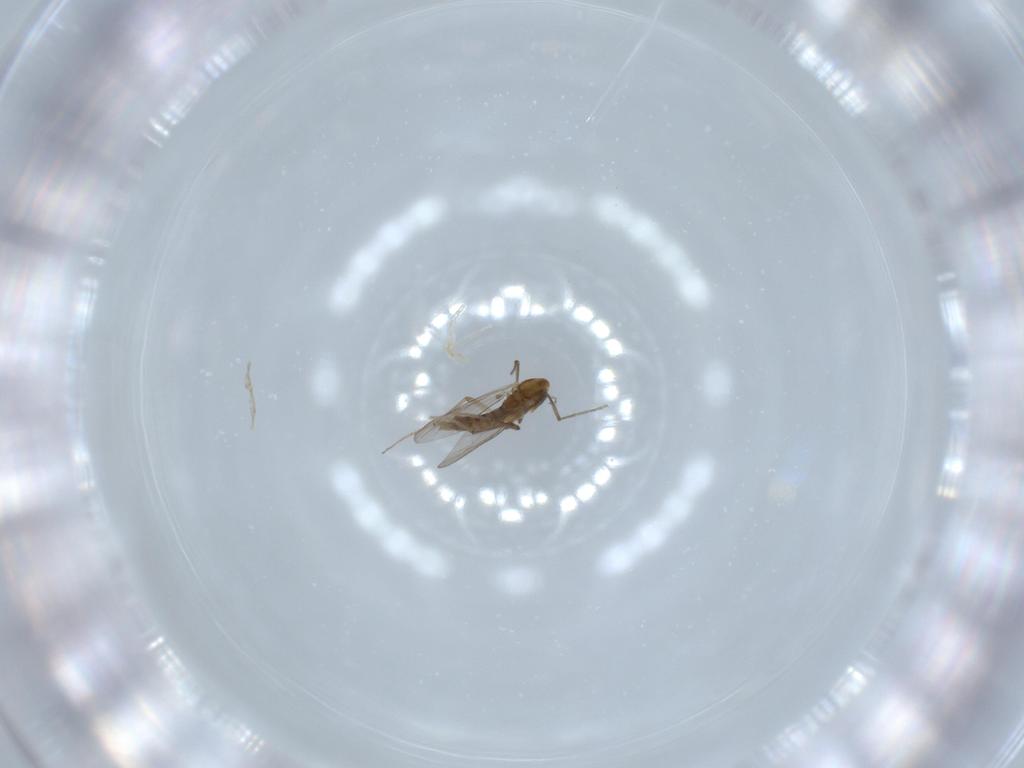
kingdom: Animalia
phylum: Arthropoda
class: Insecta
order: Diptera
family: Chironomidae
